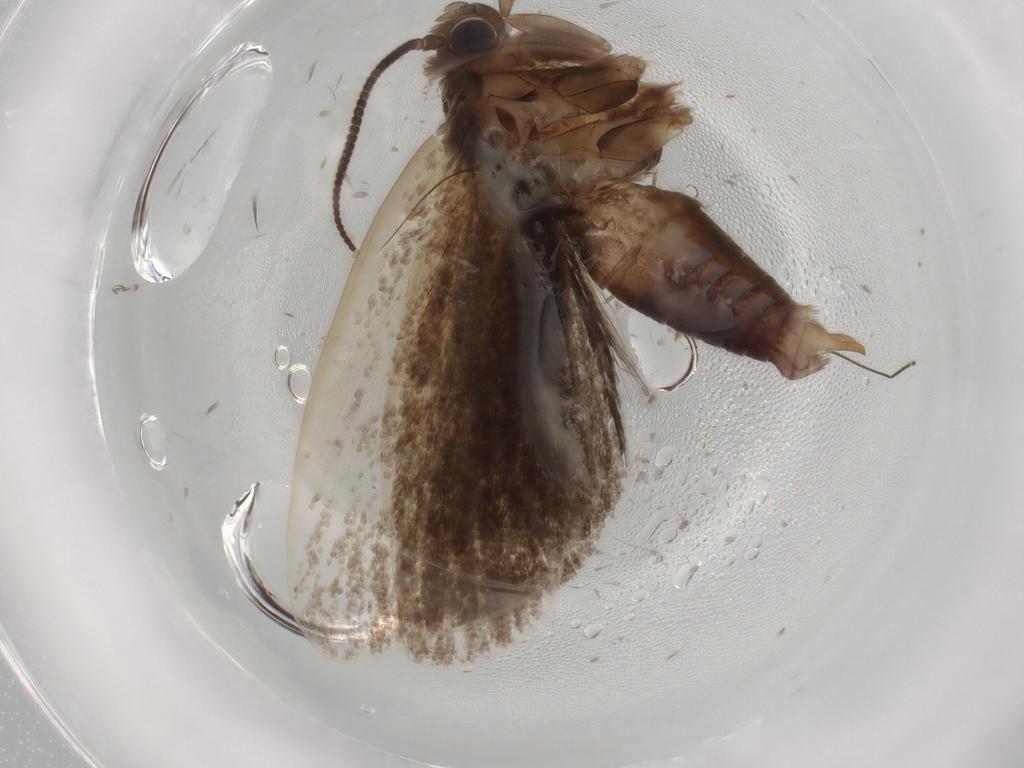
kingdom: Animalia
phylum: Arthropoda
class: Insecta
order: Lepidoptera
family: Tineidae
